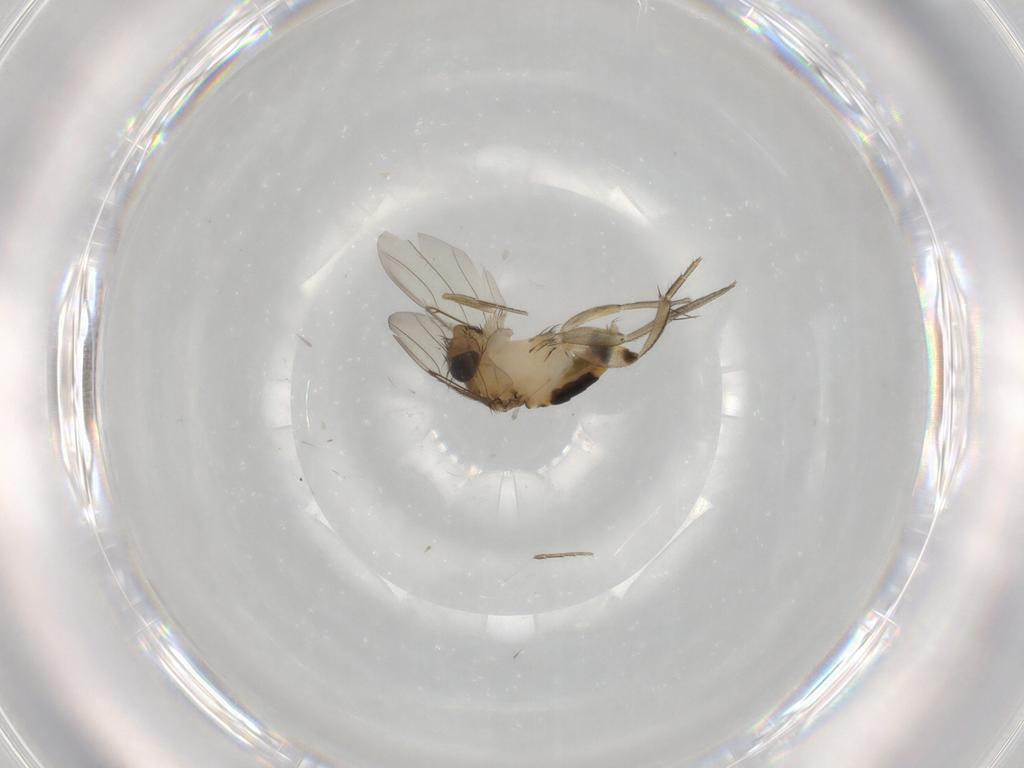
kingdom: Animalia
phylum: Arthropoda
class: Insecta
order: Diptera
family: Phoridae
